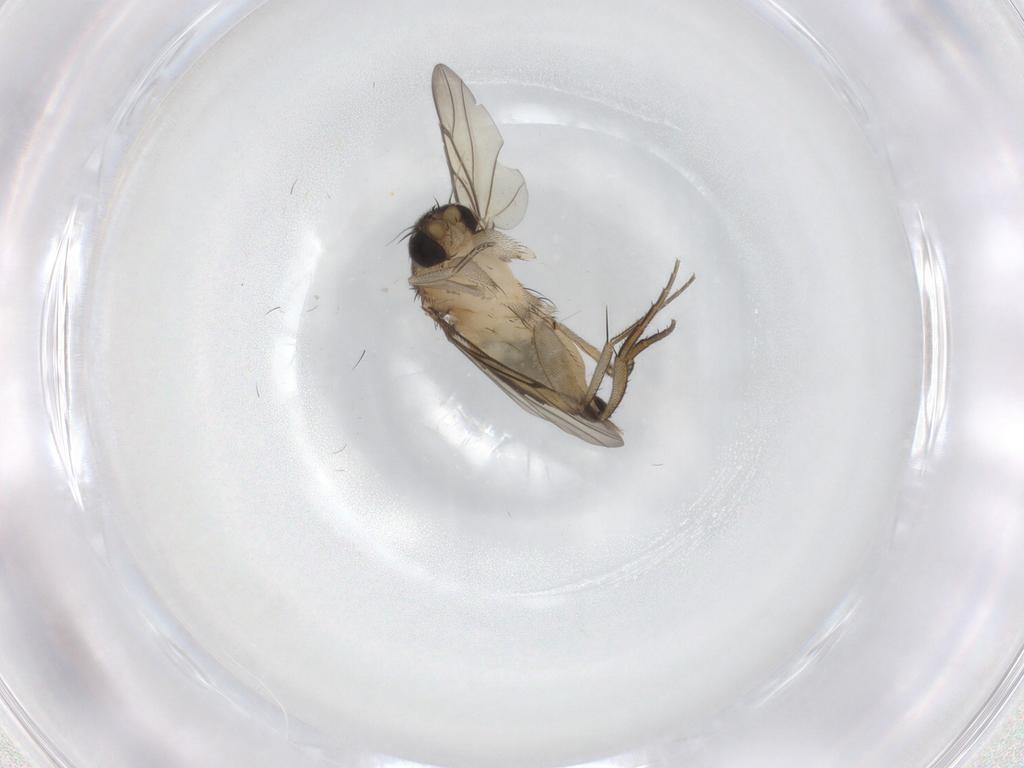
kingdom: Animalia
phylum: Arthropoda
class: Insecta
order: Diptera
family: Phoridae
